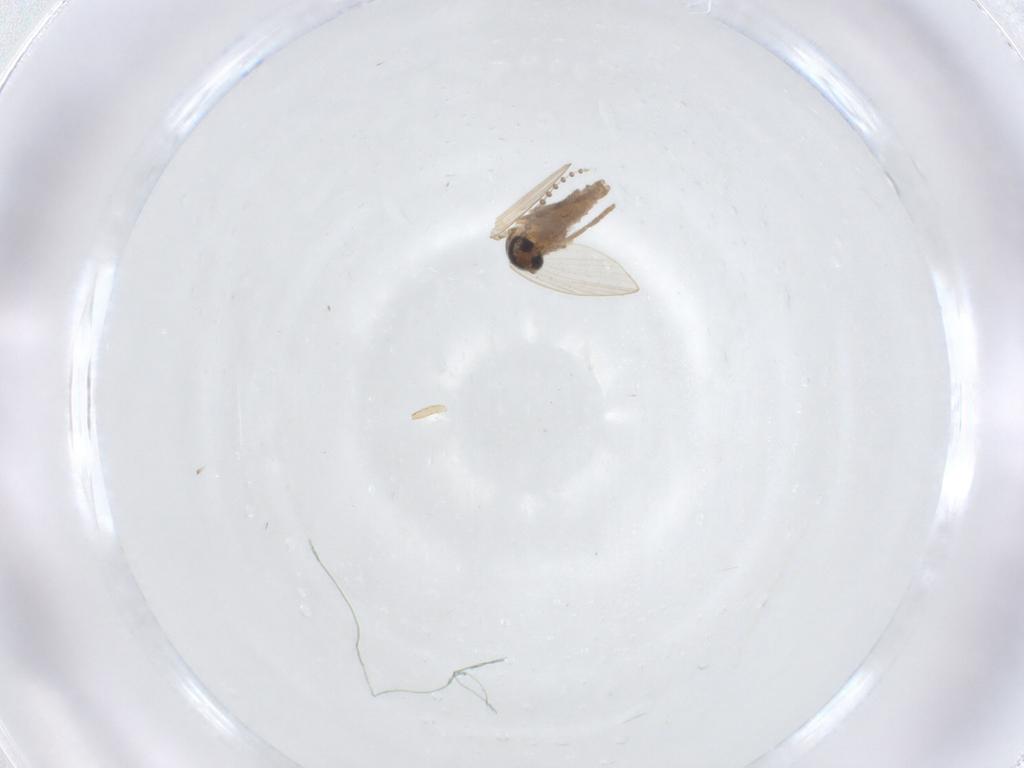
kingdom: Animalia
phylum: Arthropoda
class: Insecta
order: Diptera
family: Ceratopogonidae
